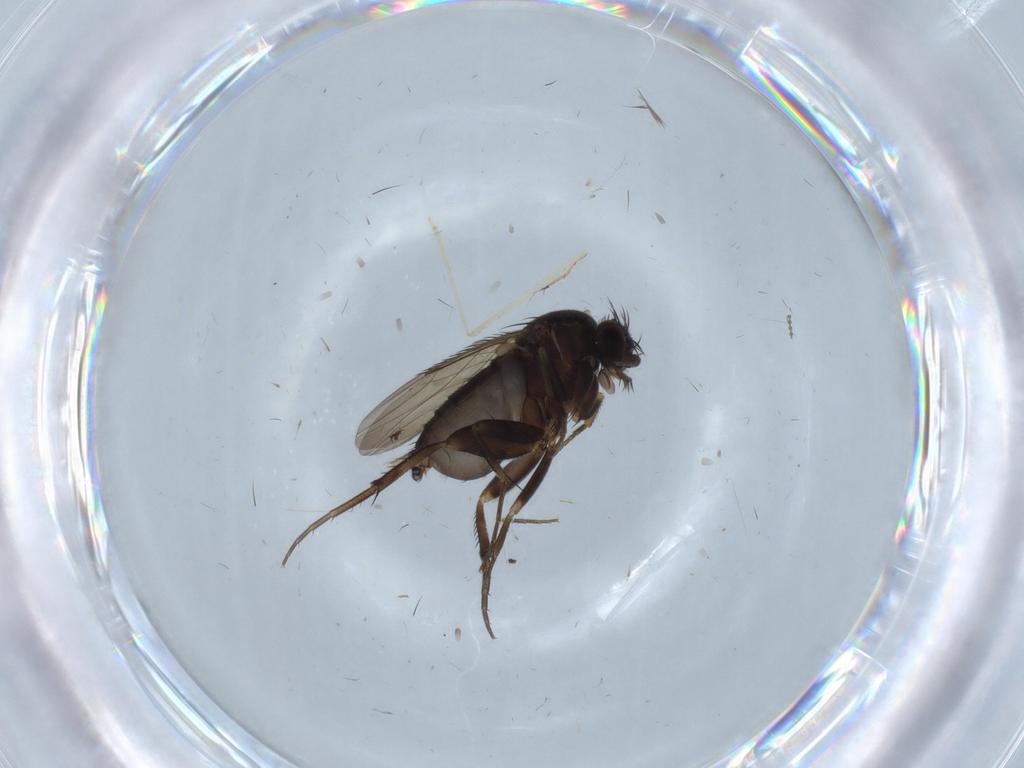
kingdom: Animalia
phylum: Arthropoda
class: Insecta
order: Diptera
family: Sciaridae
